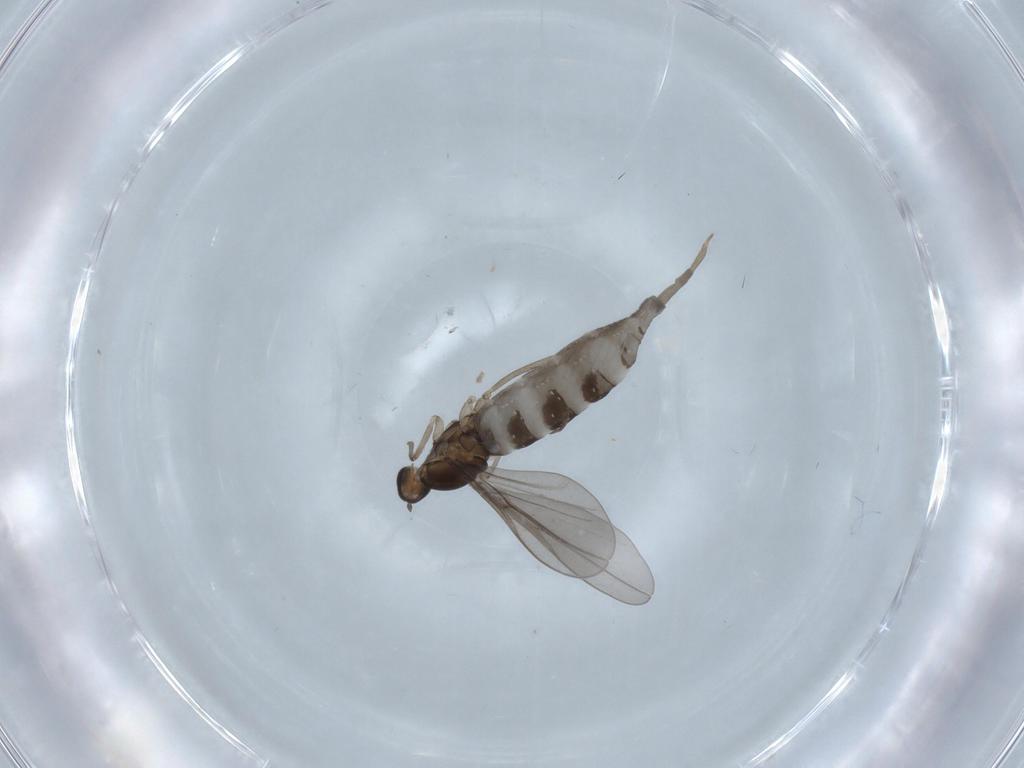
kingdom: Animalia
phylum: Arthropoda
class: Insecta
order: Diptera
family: Cecidomyiidae
